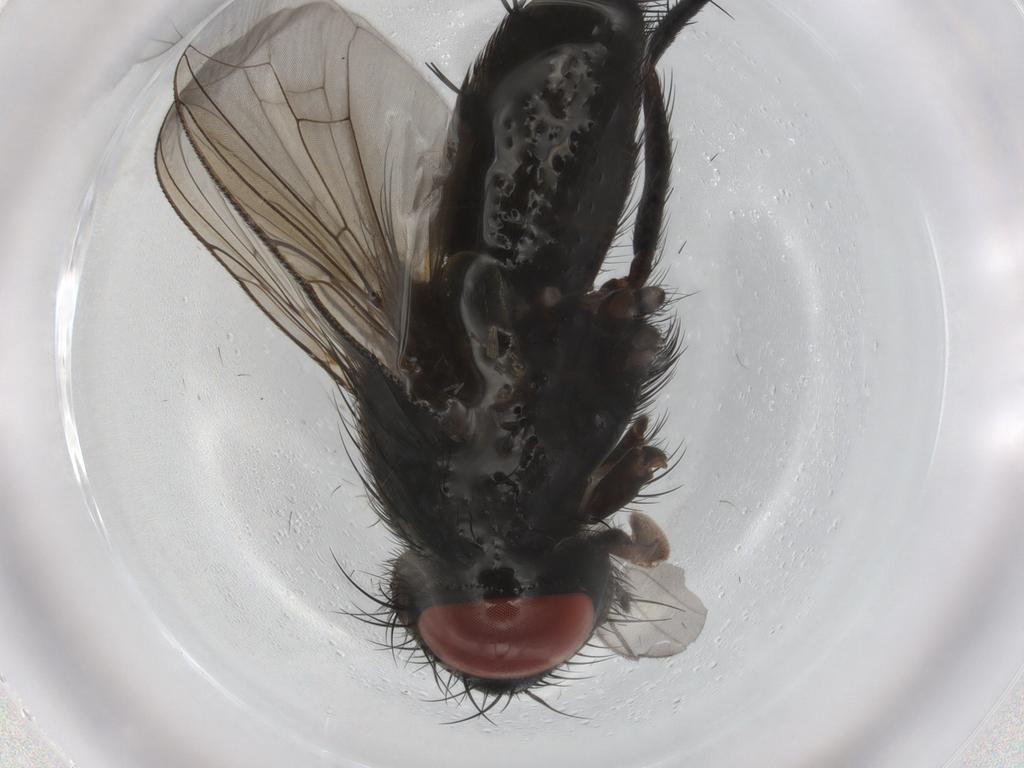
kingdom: Animalia
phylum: Arthropoda
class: Insecta
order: Diptera
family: Sarcophagidae
